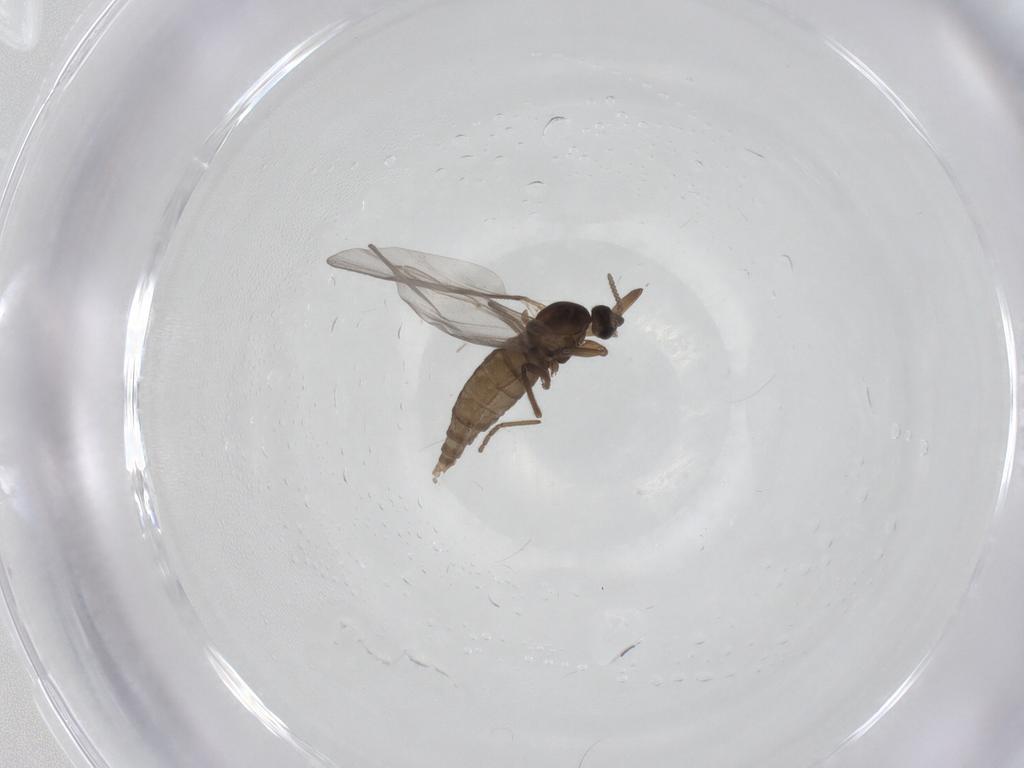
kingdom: Animalia
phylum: Arthropoda
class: Insecta
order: Diptera
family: Cecidomyiidae
